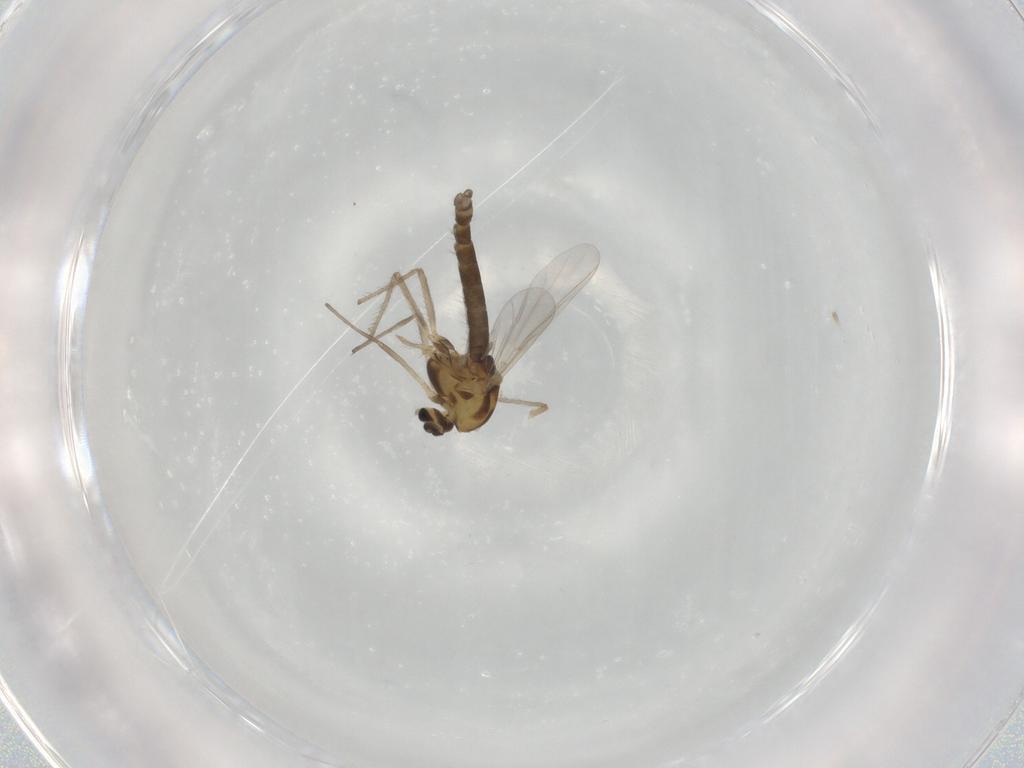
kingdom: Animalia
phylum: Arthropoda
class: Insecta
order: Diptera
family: Chironomidae
